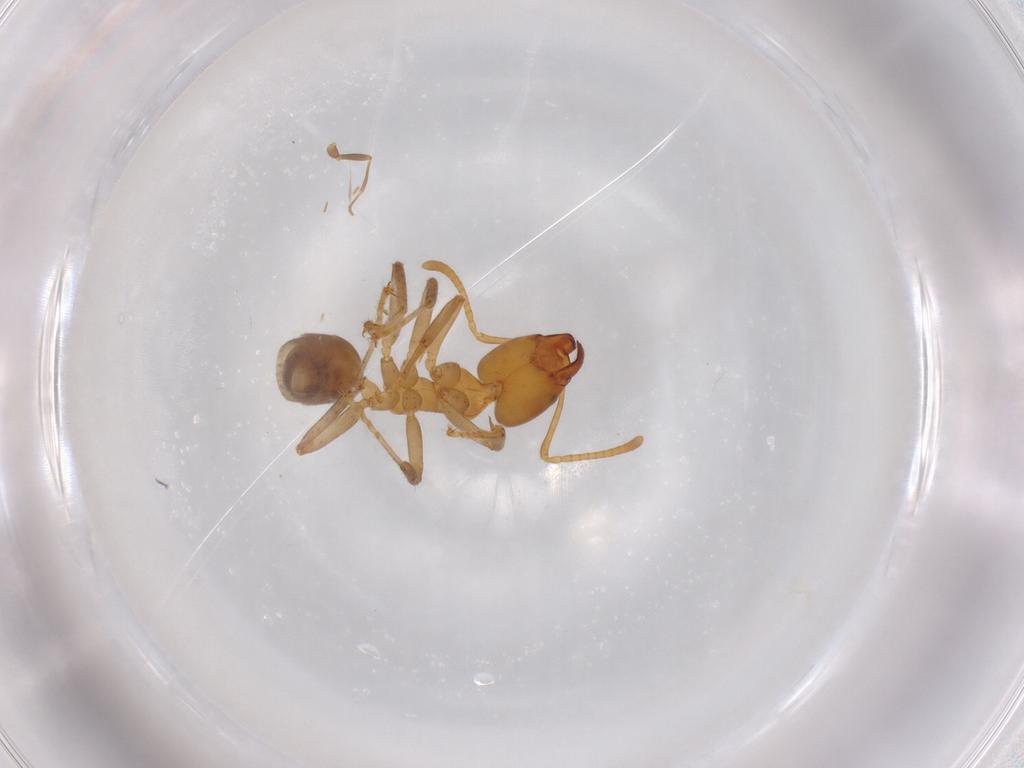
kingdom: Animalia
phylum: Arthropoda
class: Insecta
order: Hymenoptera
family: Formicidae
